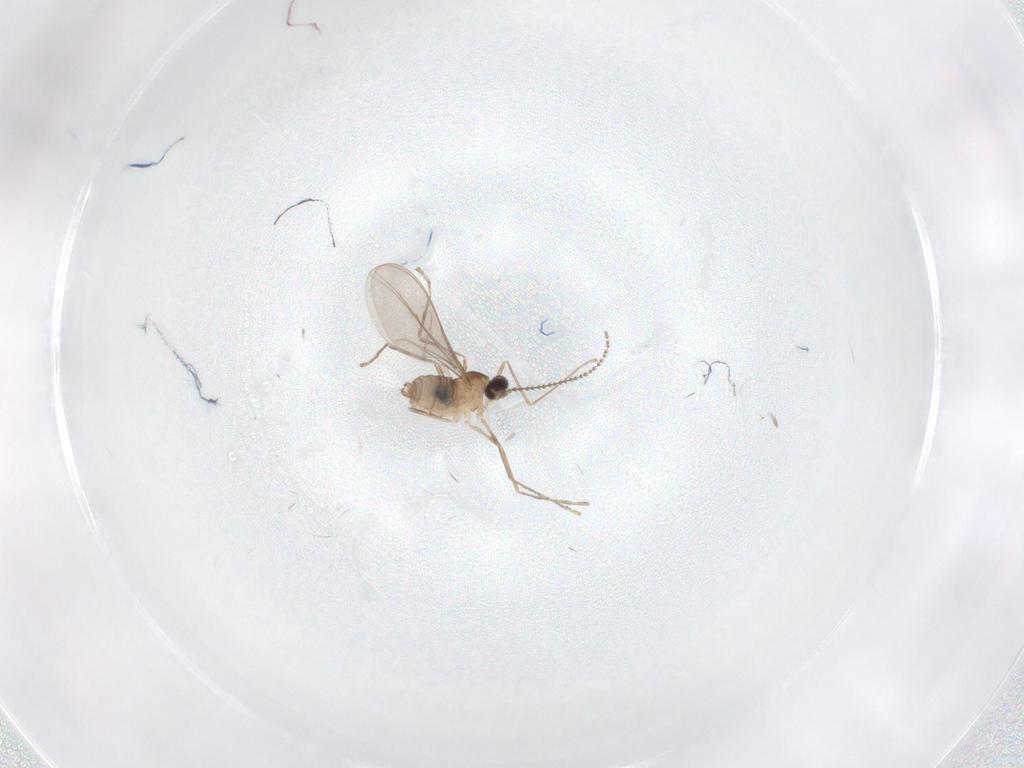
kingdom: Animalia
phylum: Arthropoda
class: Insecta
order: Diptera
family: Cecidomyiidae
